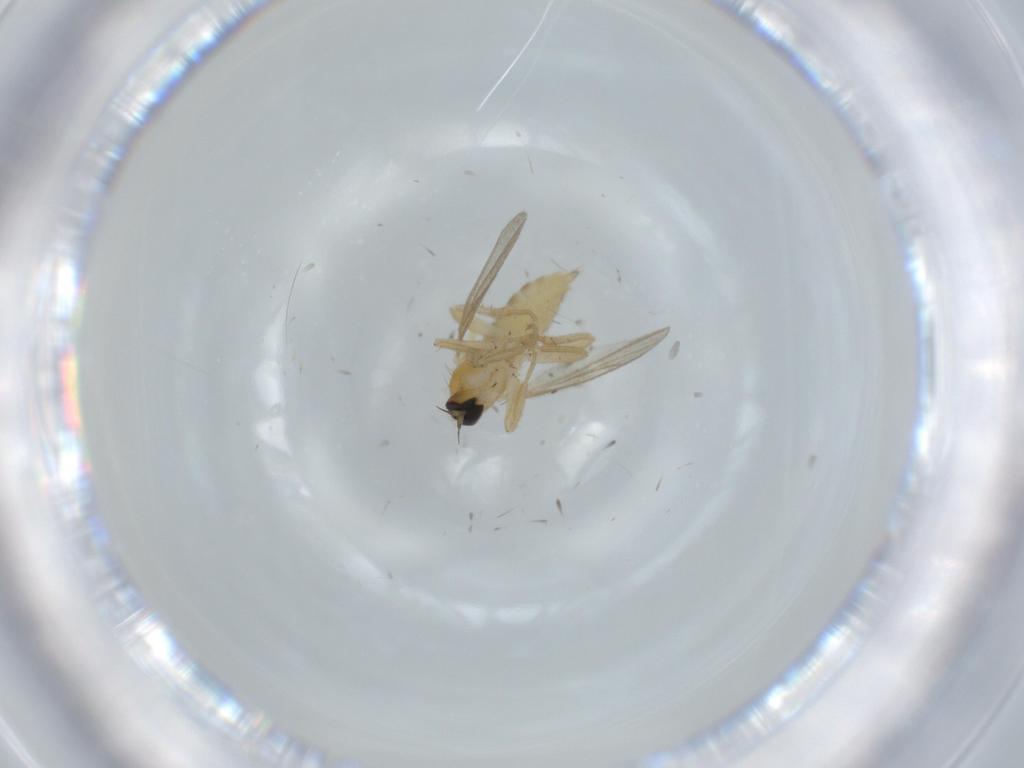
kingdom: Animalia
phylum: Arthropoda
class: Insecta
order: Diptera
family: Hybotidae
